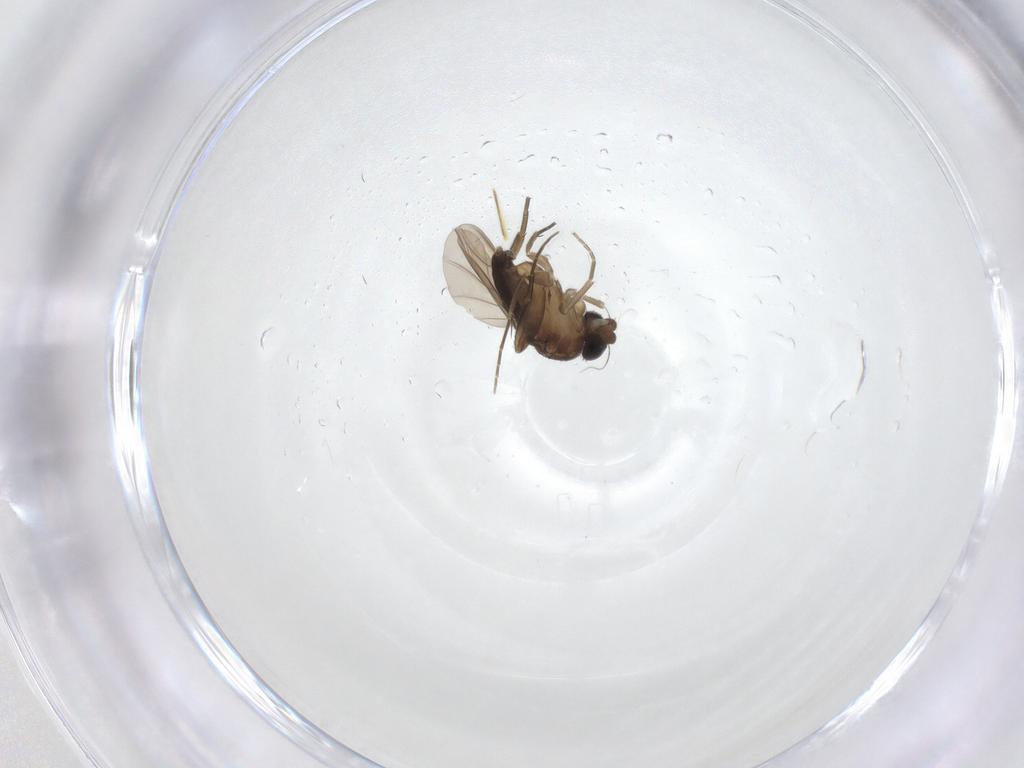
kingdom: Animalia
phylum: Arthropoda
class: Insecta
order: Diptera
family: Phoridae
